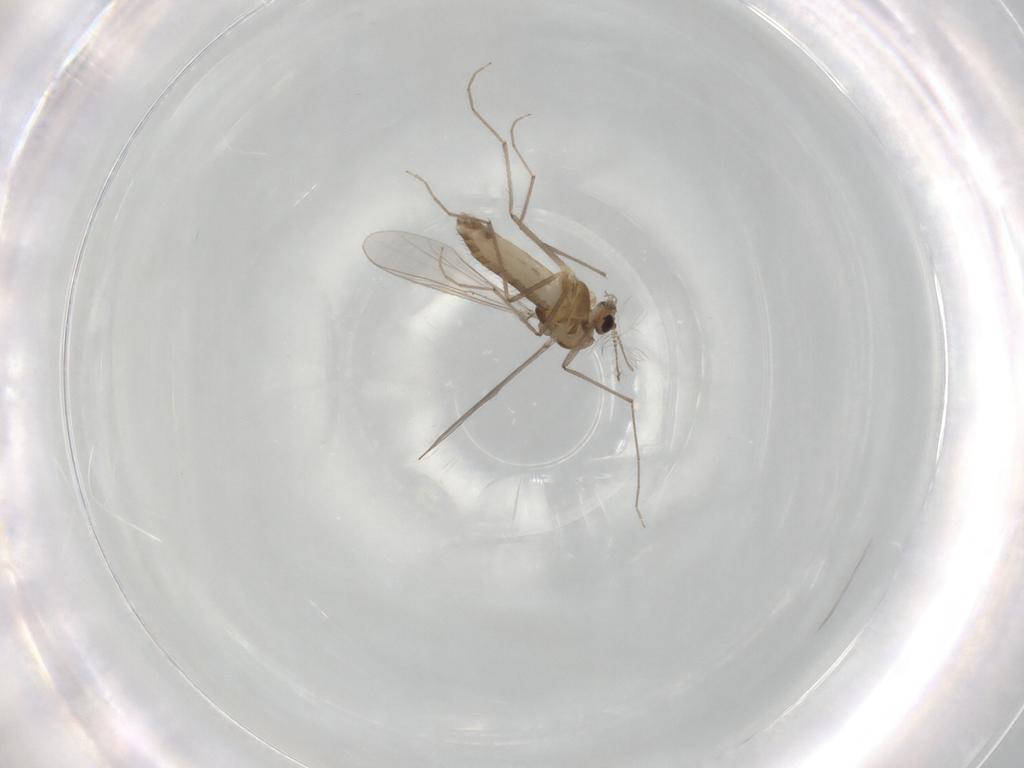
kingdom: Animalia
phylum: Arthropoda
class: Insecta
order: Diptera
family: Chironomidae
